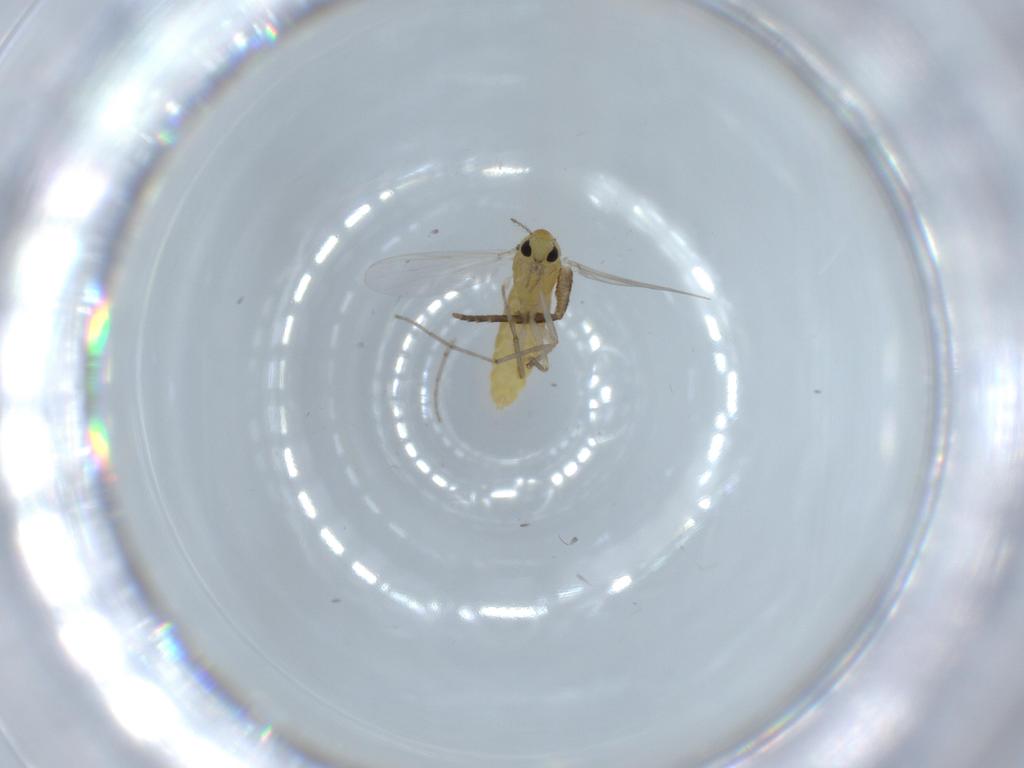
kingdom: Animalia
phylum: Arthropoda
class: Insecta
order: Diptera
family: Chironomidae
